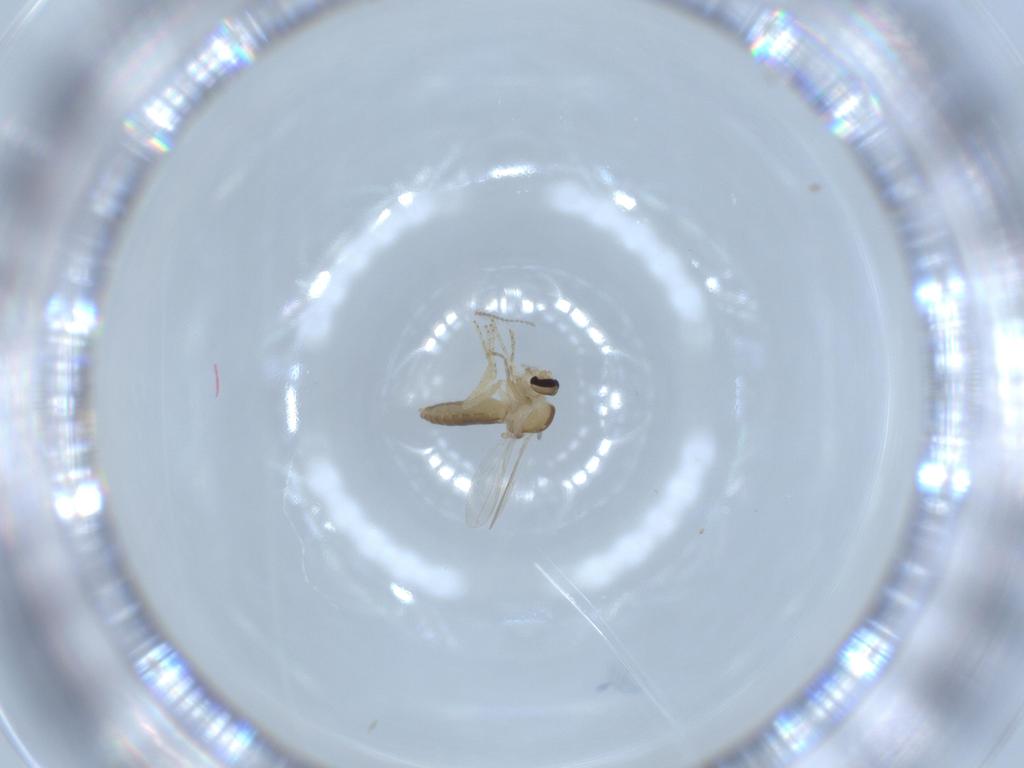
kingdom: Animalia
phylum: Arthropoda
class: Insecta
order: Diptera
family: Ceratopogonidae
